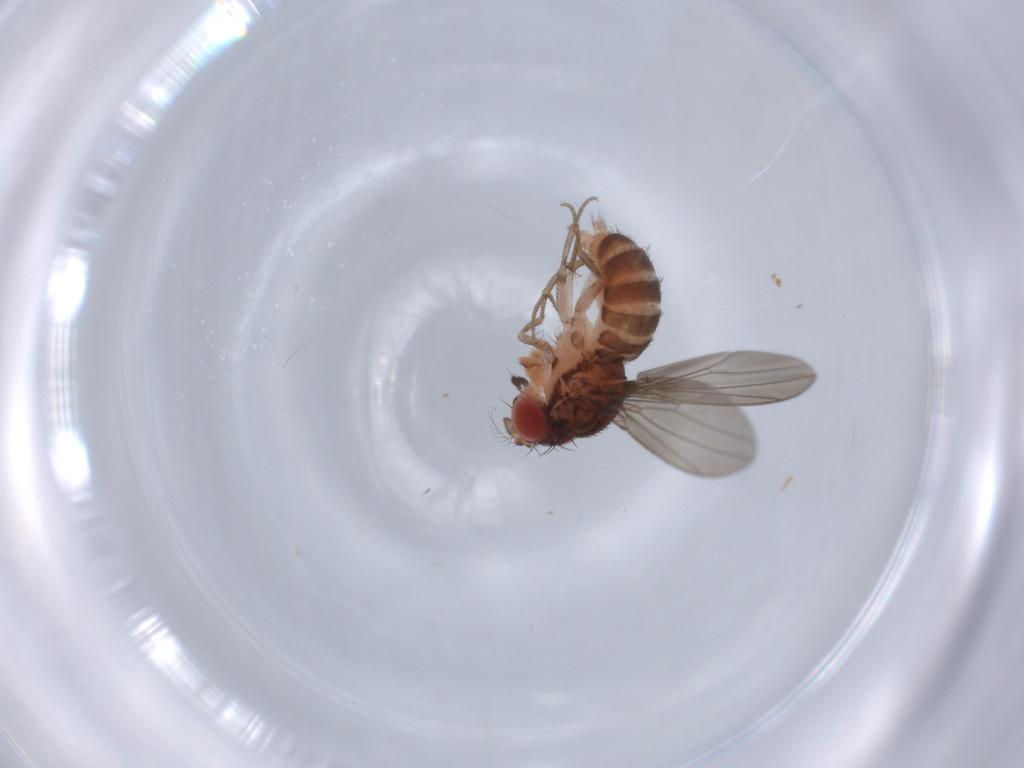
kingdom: Animalia
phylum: Arthropoda
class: Insecta
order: Diptera
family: Drosophilidae
